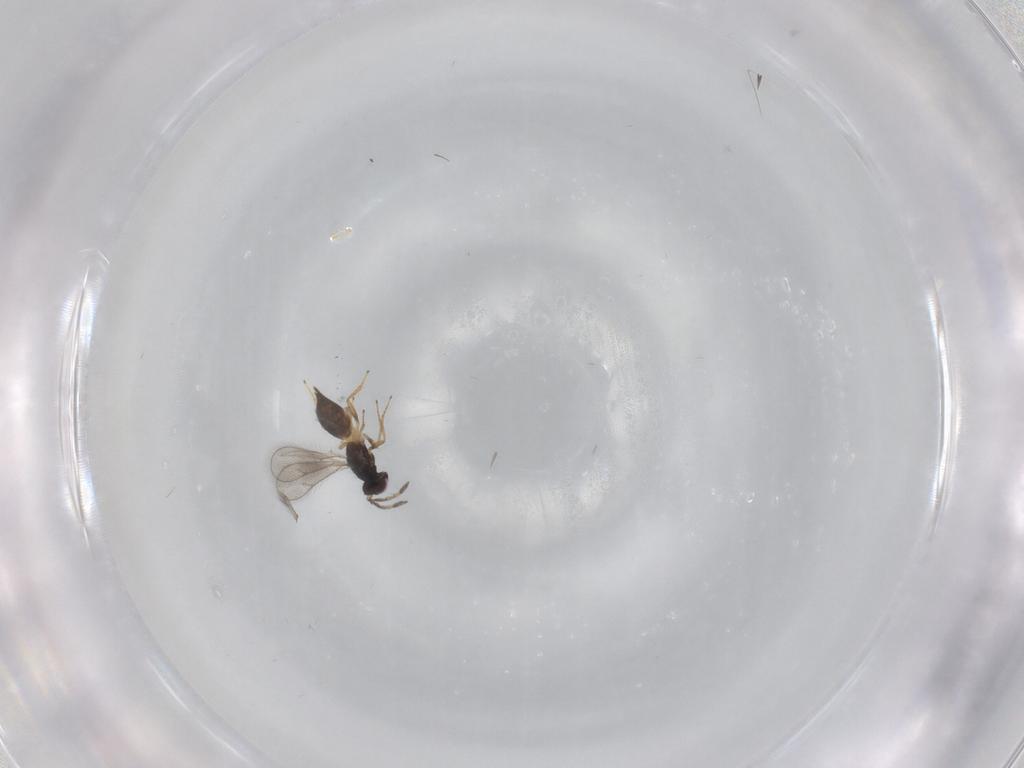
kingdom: Animalia
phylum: Arthropoda
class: Insecta
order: Hymenoptera
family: Eulophidae
